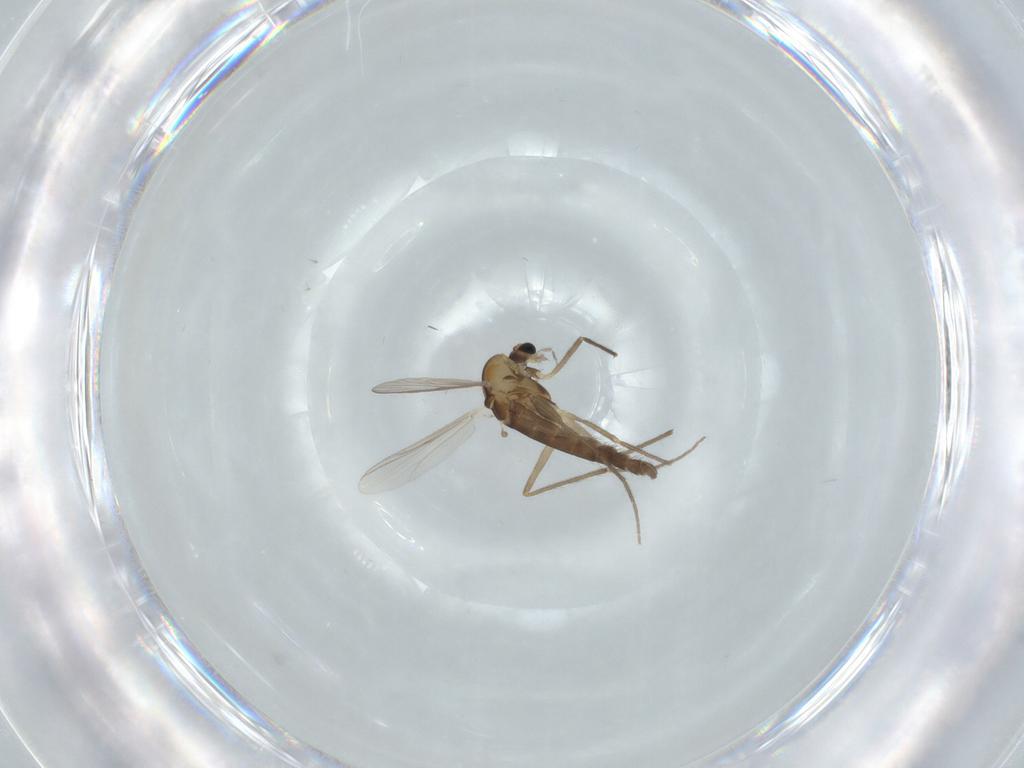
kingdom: Animalia
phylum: Arthropoda
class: Insecta
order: Diptera
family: Chironomidae
